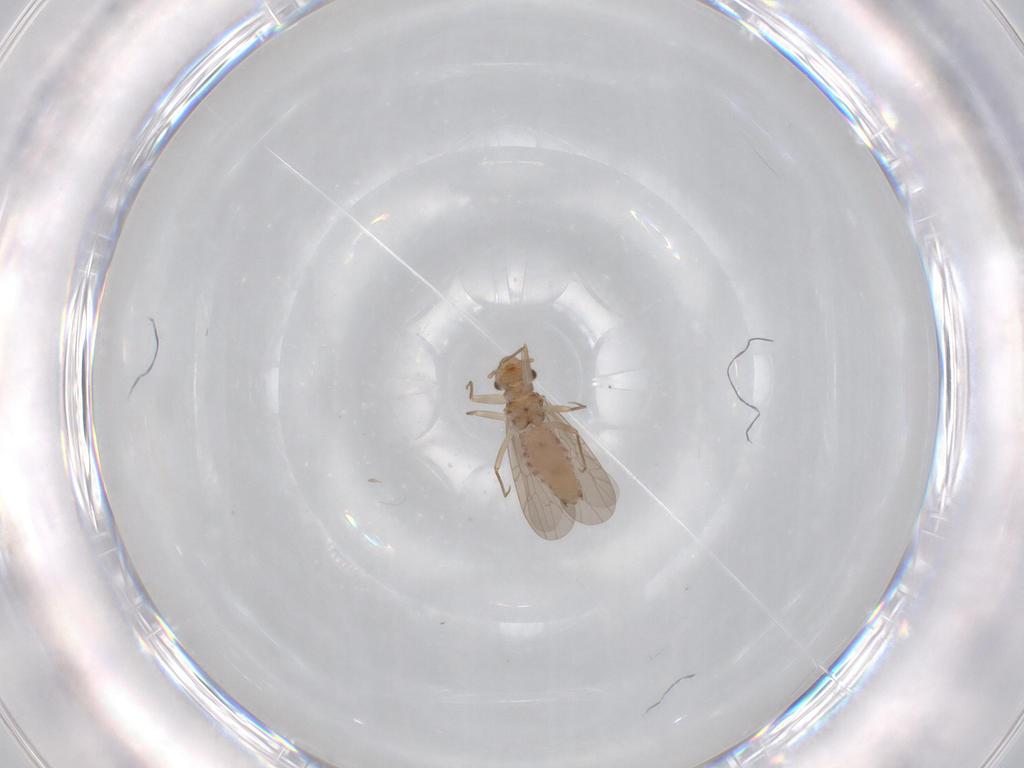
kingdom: Animalia
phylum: Arthropoda
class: Insecta
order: Psocodea
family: Lepidopsocidae
